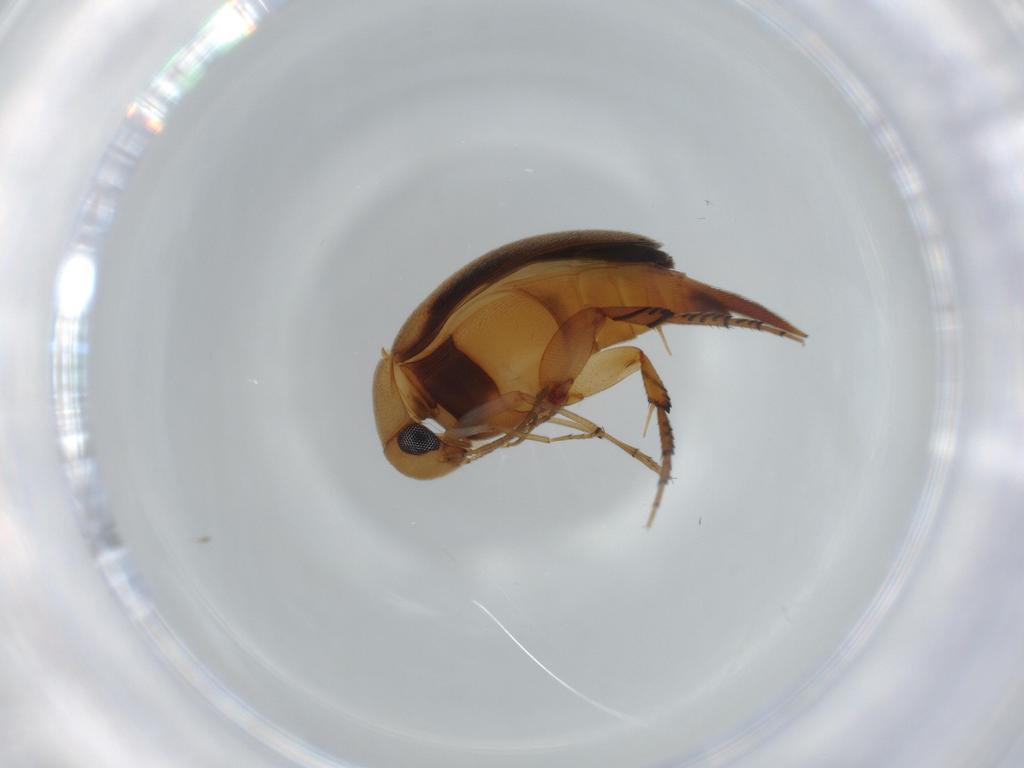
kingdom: Animalia
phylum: Arthropoda
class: Insecta
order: Coleoptera
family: Mordellidae
